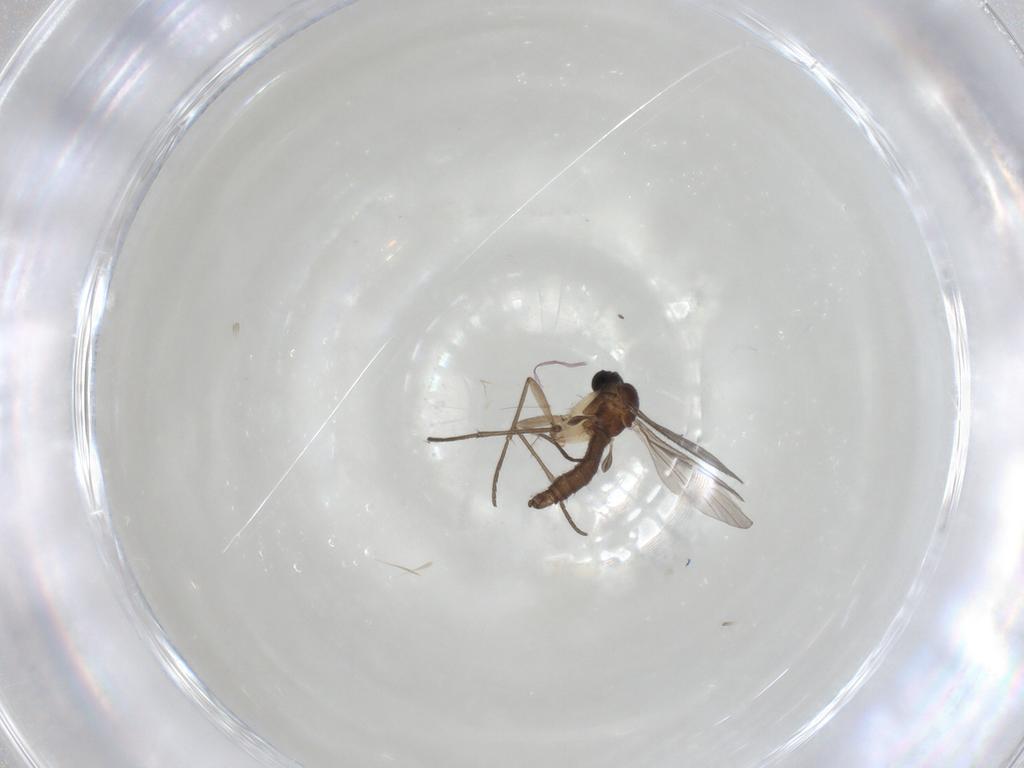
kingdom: Animalia
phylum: Arthropoda
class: Insecta
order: Diptera
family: Sciaridae
